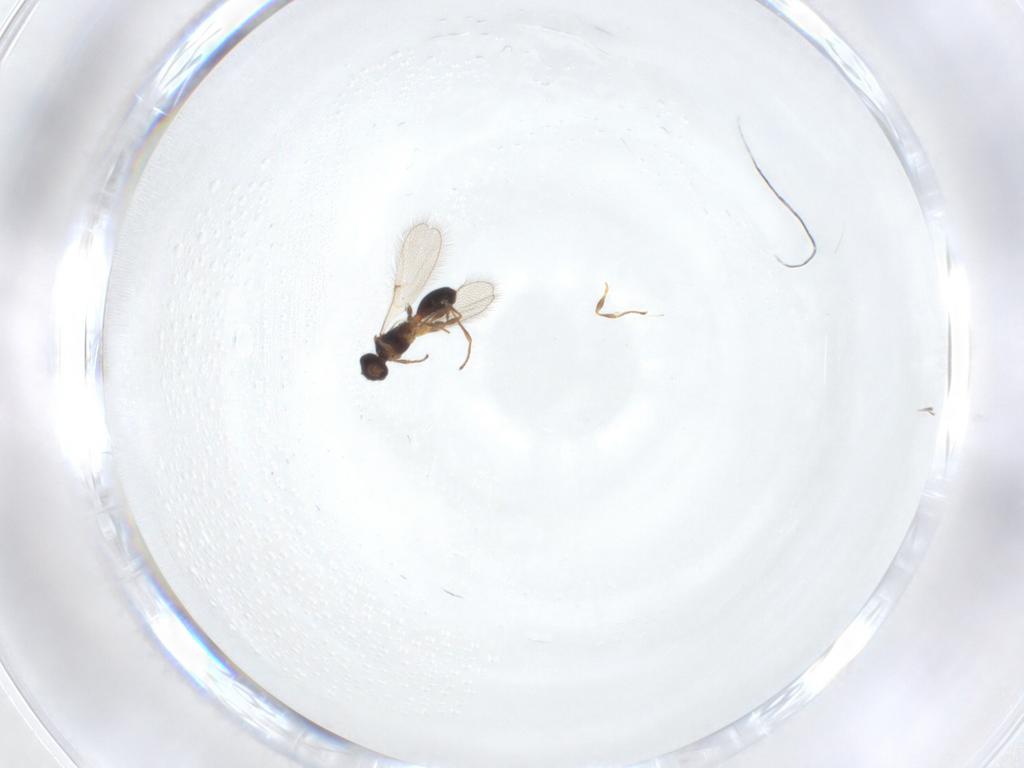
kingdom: Animalia
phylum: Arthropoda
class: Insecta
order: Hymenoptera
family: Diapriidae
